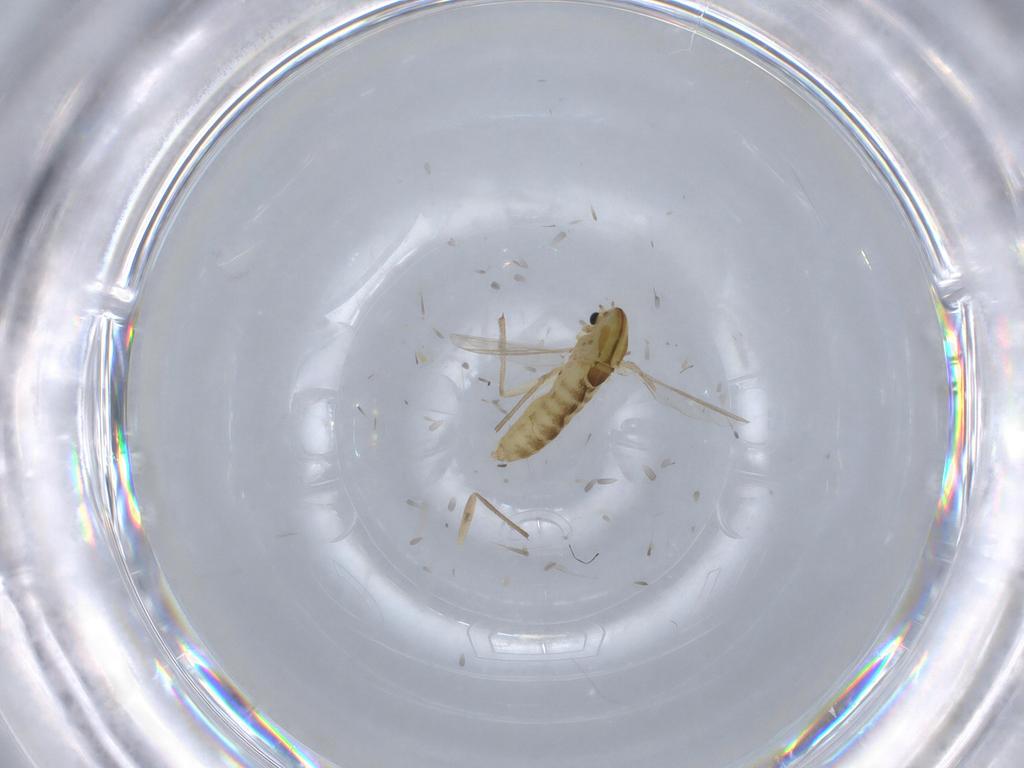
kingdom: Animalia
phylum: Arthropoda
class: Insecta
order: Diptera
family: Chironomidae
